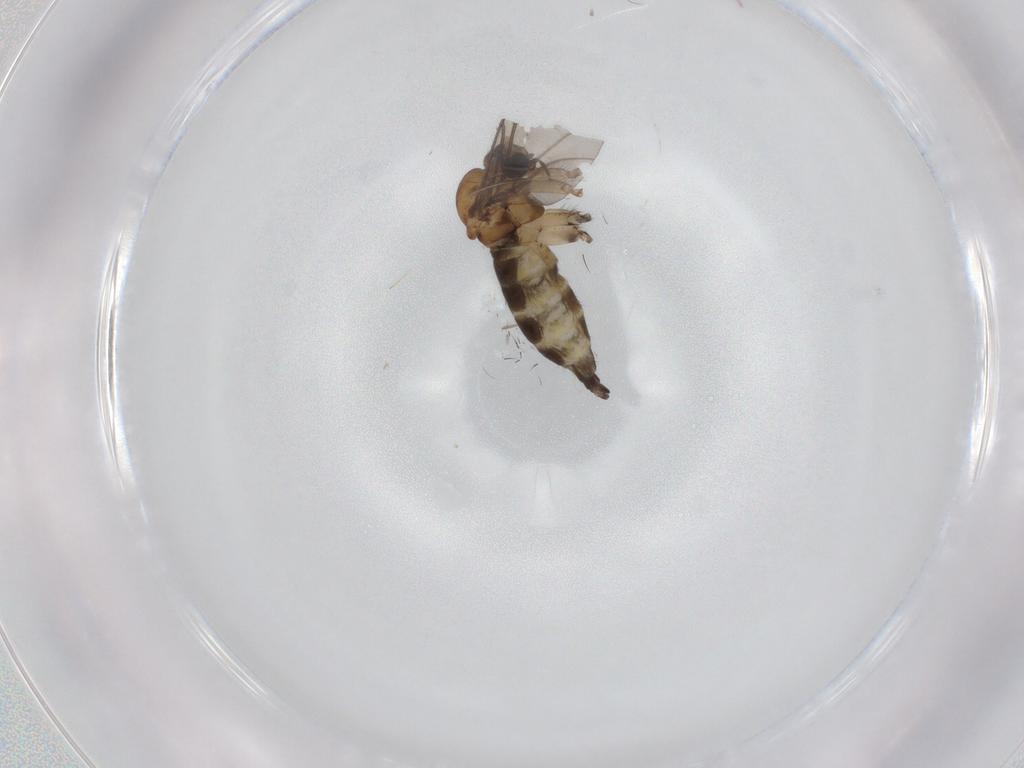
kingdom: Animalia
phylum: Arthropoda
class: Insecta
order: Diptera
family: Sciaridae
